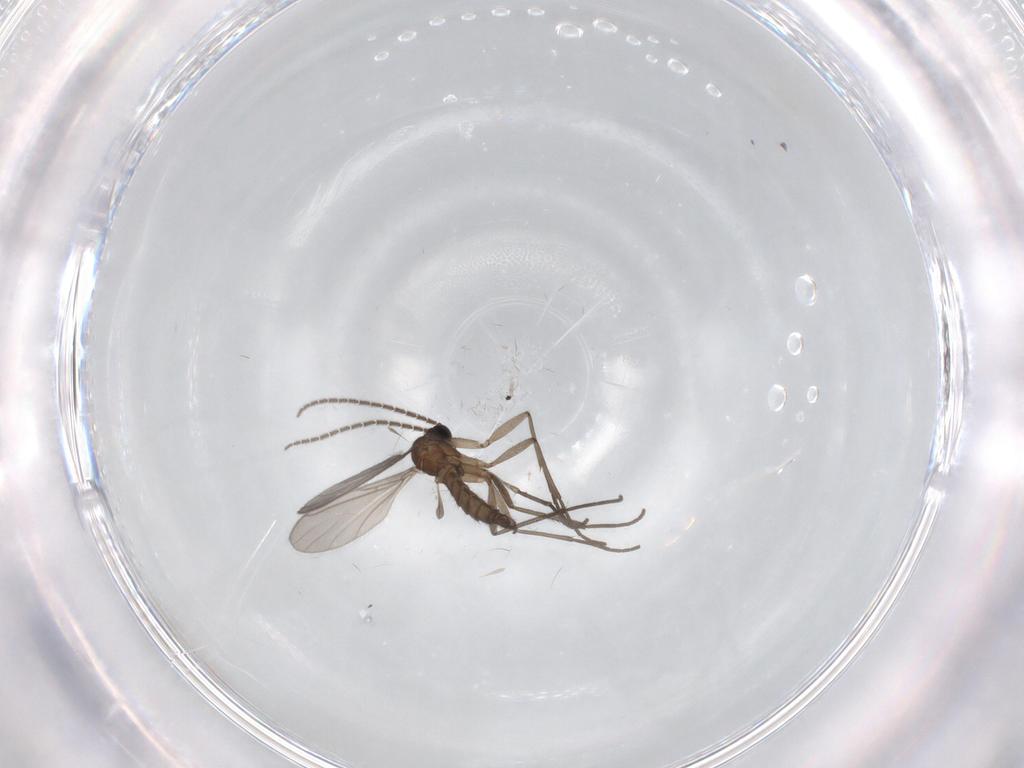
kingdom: Animalia
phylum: Arthropoda
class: Insecta
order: Diptera
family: Sciaridae
